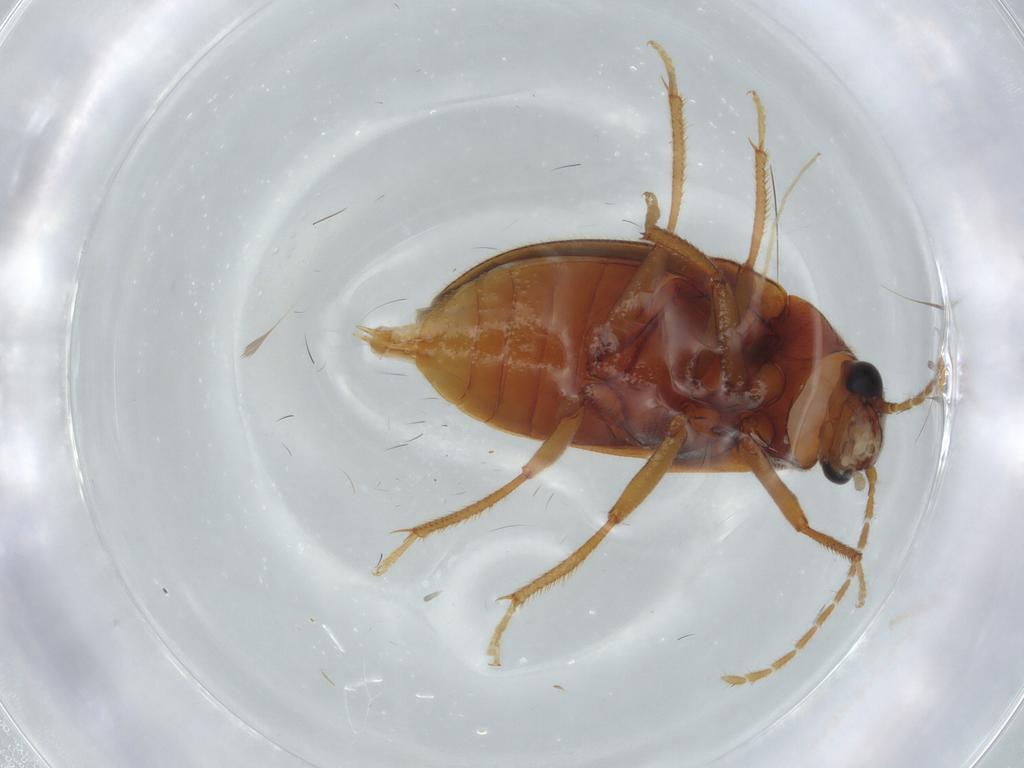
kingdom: Animalia
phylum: Arthropoda
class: Insecta
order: Coleoptera
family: Ptilodactylidae
